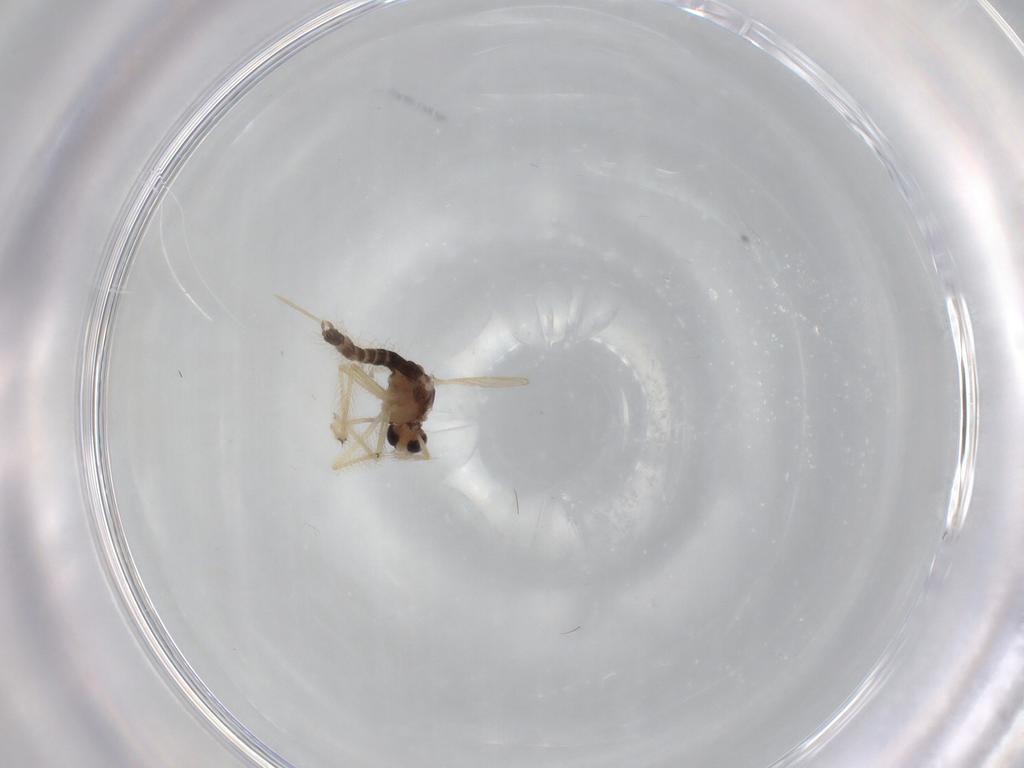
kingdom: Animalia
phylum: Arthropoda
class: Insecta
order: Diptera
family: Chironomidae
